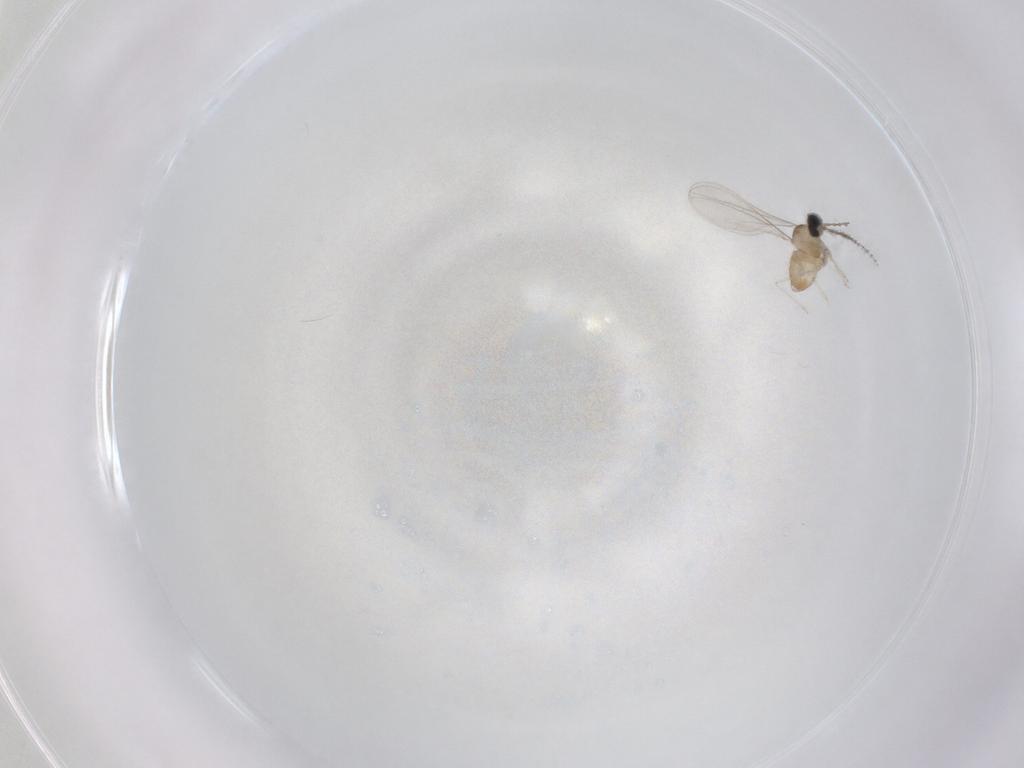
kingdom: Animalia
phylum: Arthropoda
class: Insecta
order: Diptera
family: Cecidomyiidae
